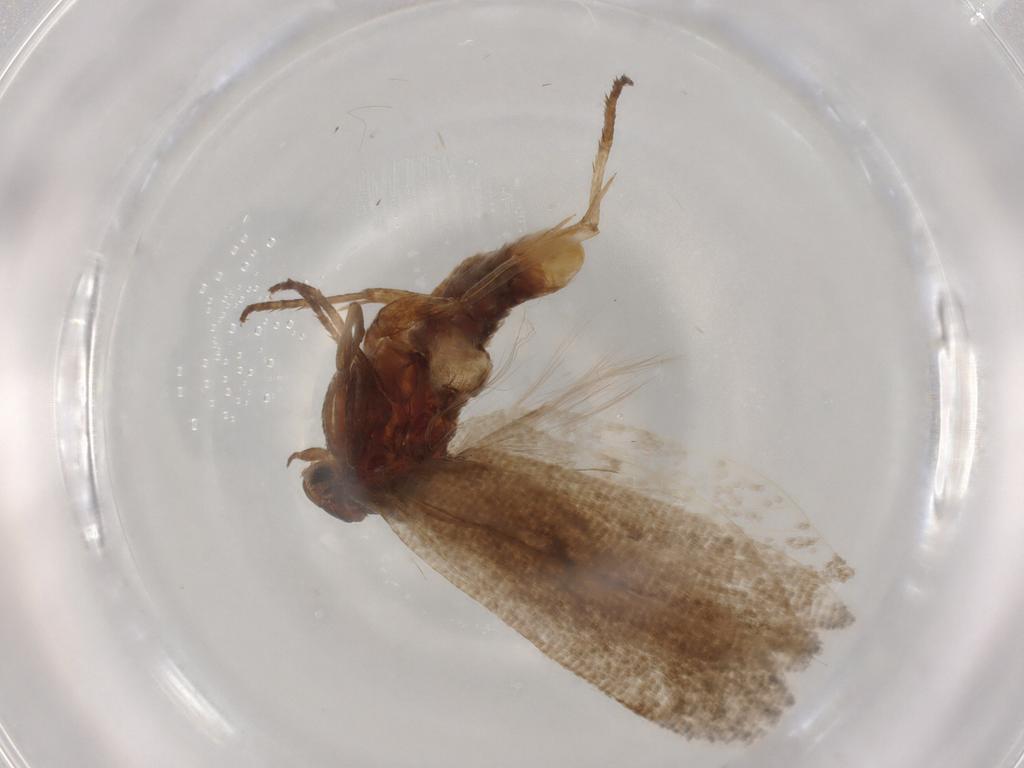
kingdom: Animalia
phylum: Arthropoda
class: Insecta
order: Lepidoptera
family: Ypsolophidae
